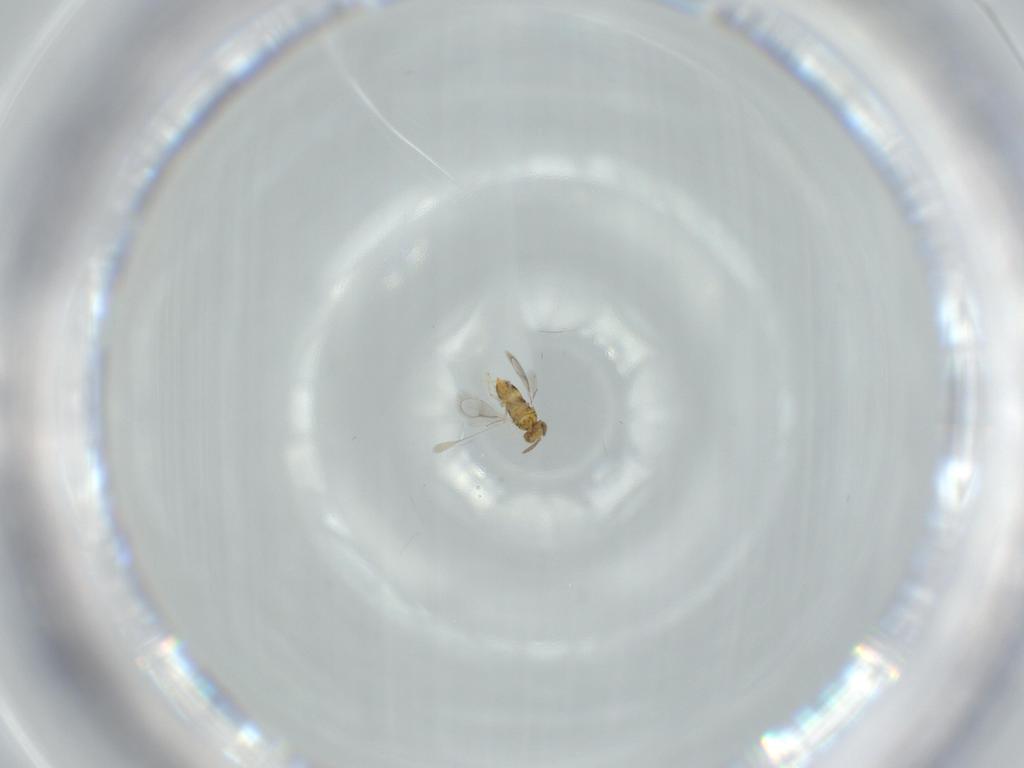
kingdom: Animalia
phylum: Arthropoda
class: Insecta
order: Hymenoptera
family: Aphelinidae
